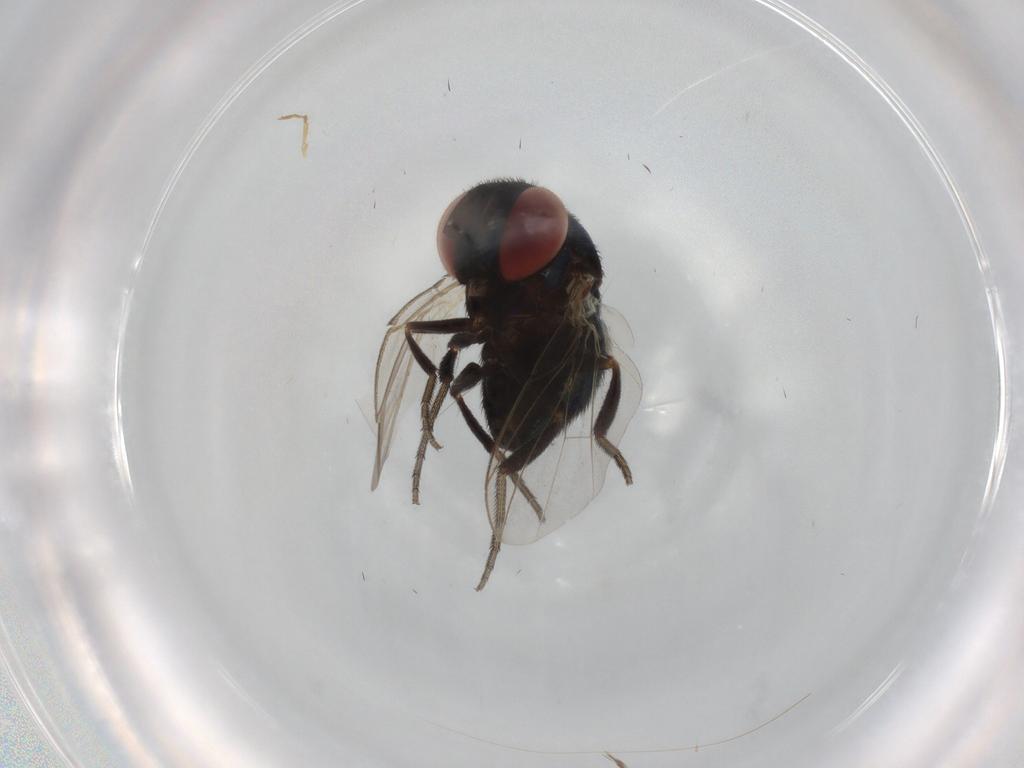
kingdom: Animalia
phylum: Arthropoda
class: Insecta
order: Diptera
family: Cryptochetidae
